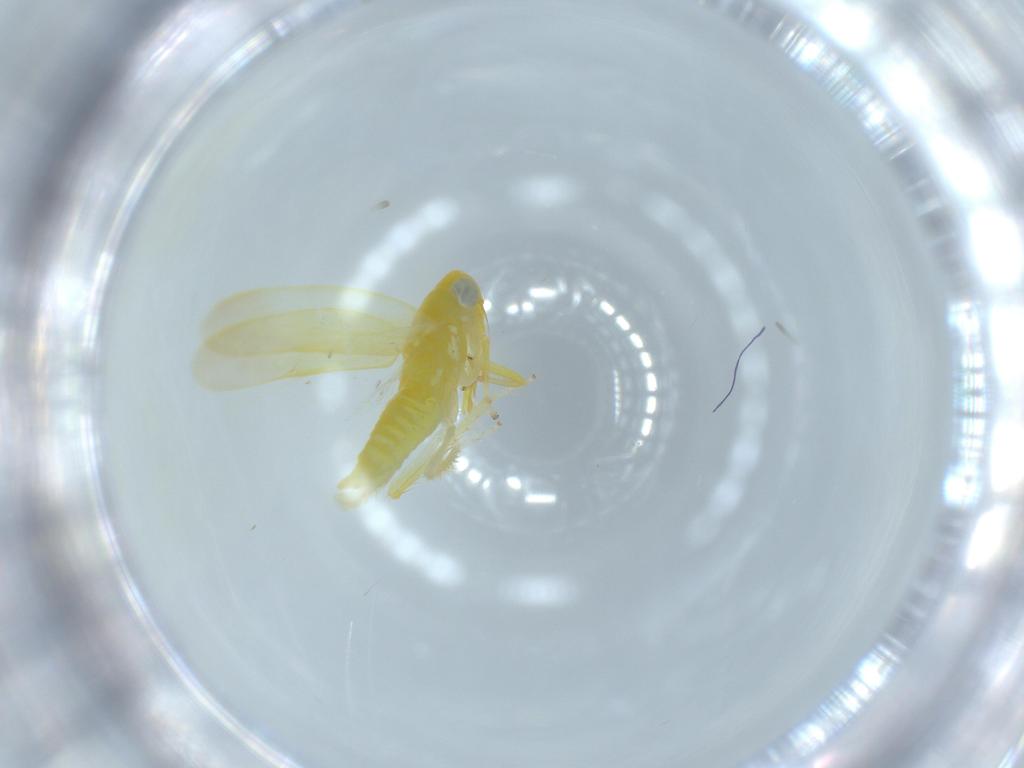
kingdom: Animalia
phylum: Arthropoda
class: Insecta
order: Hemiptera
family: Cicadellidae
